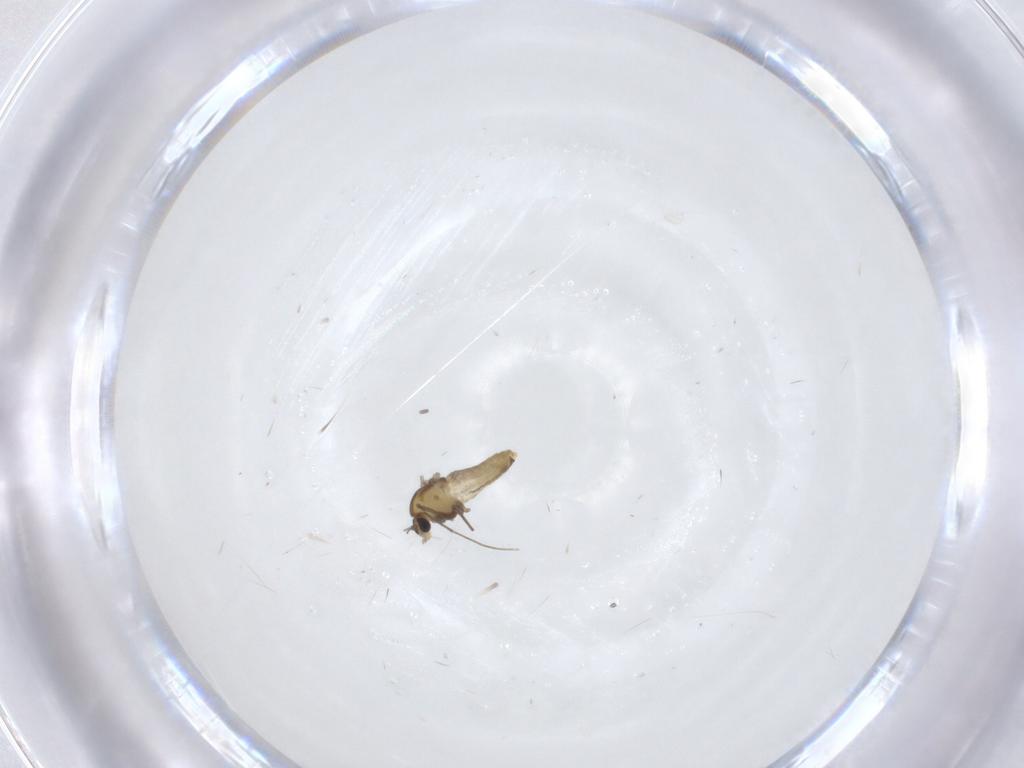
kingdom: Animalia
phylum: Arthropoda
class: Insecta
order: Diptera
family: Chironomidae
